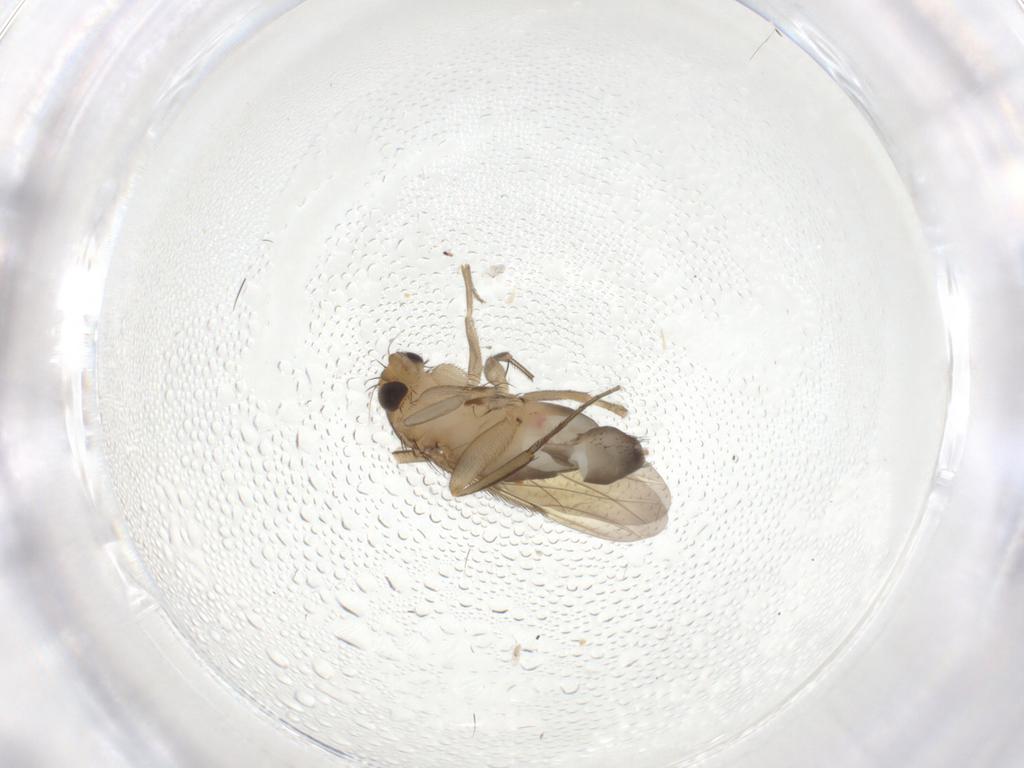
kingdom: Animalia
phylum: Arthropoda
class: Insecta
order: Diptera
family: Phoridae
